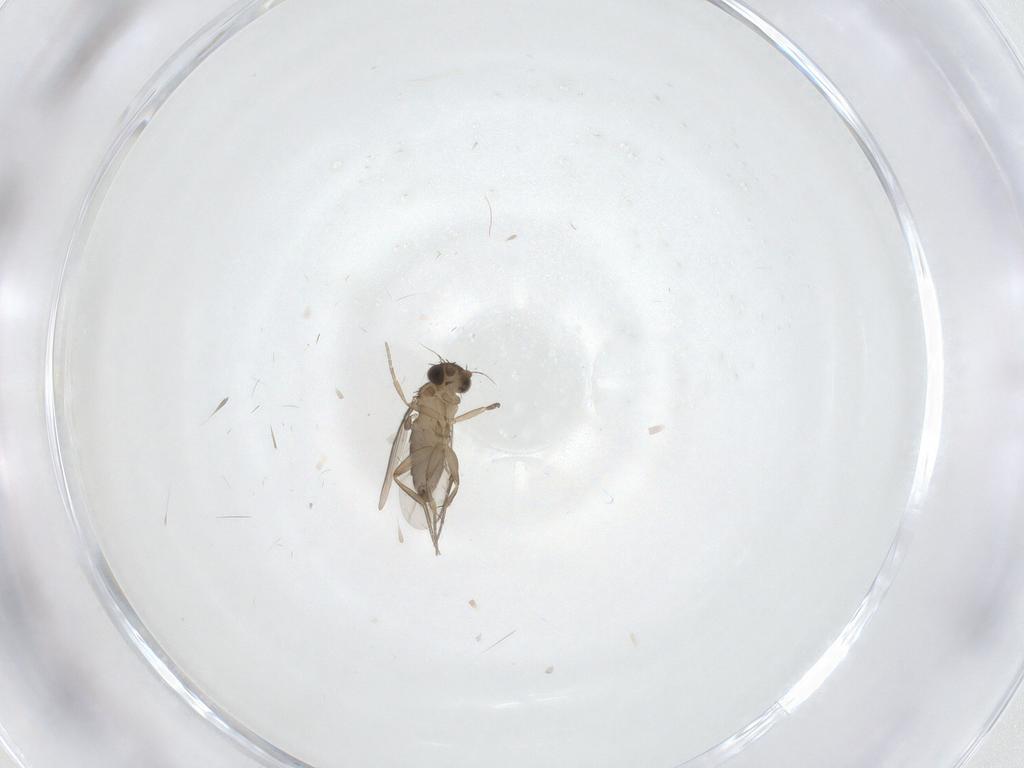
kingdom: Animalia
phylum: Arthropoda
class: Insecta
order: Diptera
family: Phoridae
